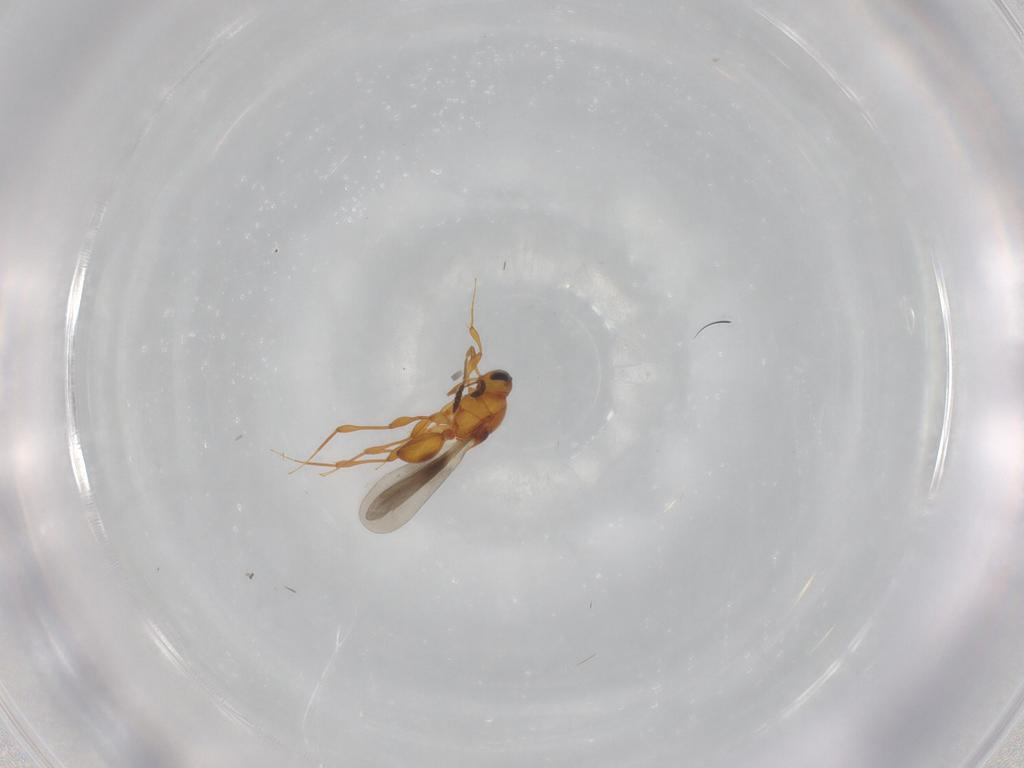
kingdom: Animalia
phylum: Arthropoda
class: Insecta
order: Hymenoptera
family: Platygastridae
